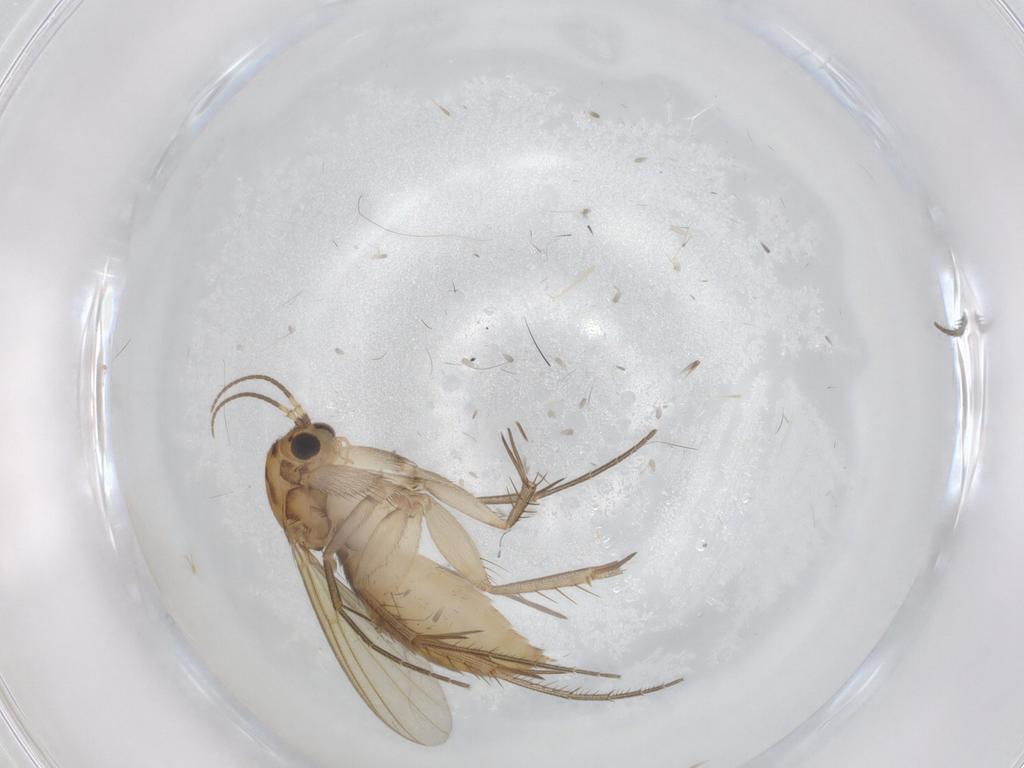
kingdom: Animalia
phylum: Arthropoda
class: Insecta
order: Diptera
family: Mycetophilidae
